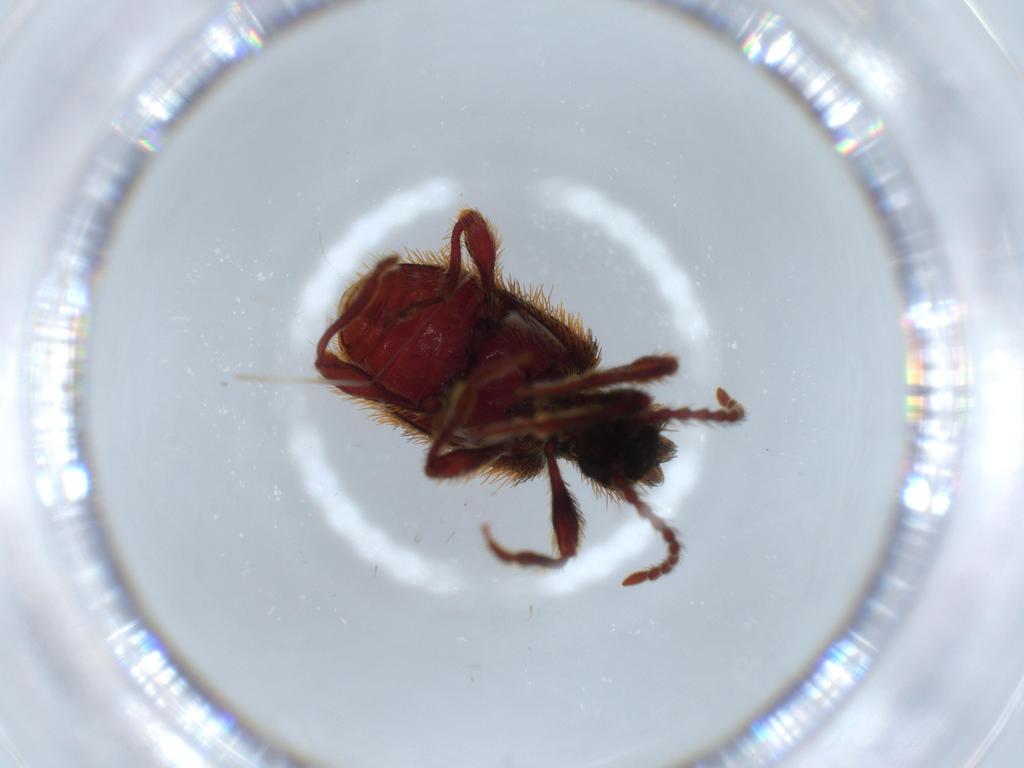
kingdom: Animalia
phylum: Arthropoda
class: Insecta
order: Coleoptera
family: Ptinidae
